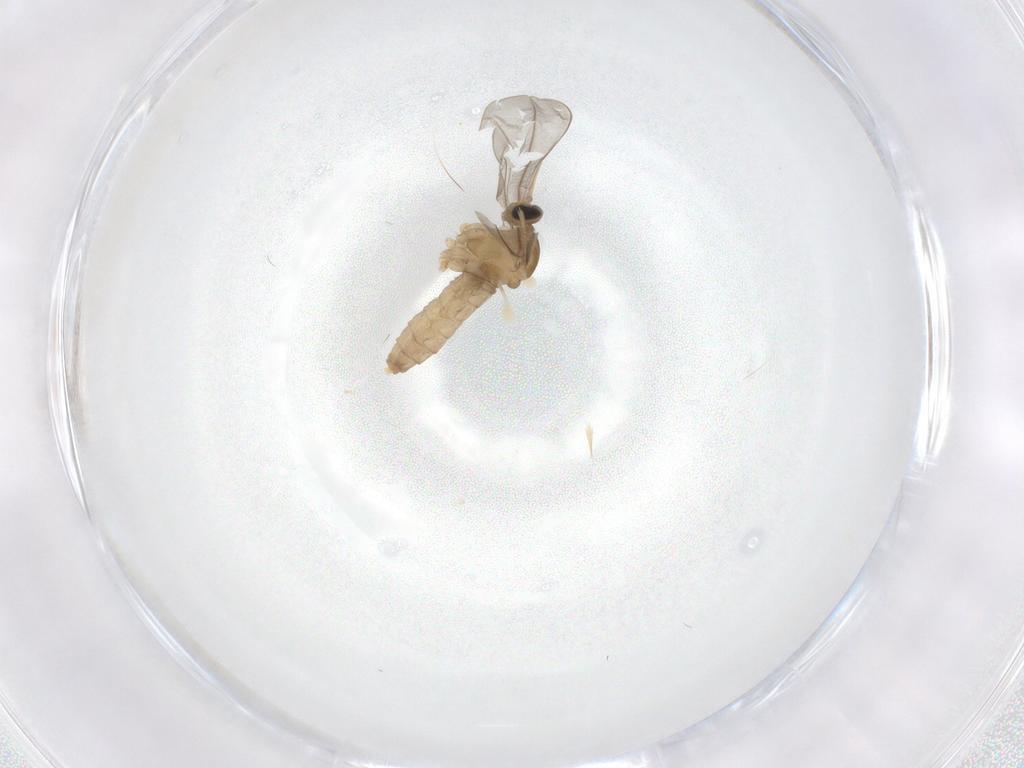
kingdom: Animalia
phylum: Arthropoda
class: Insecta
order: Diptera
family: Cecidomyiidae
